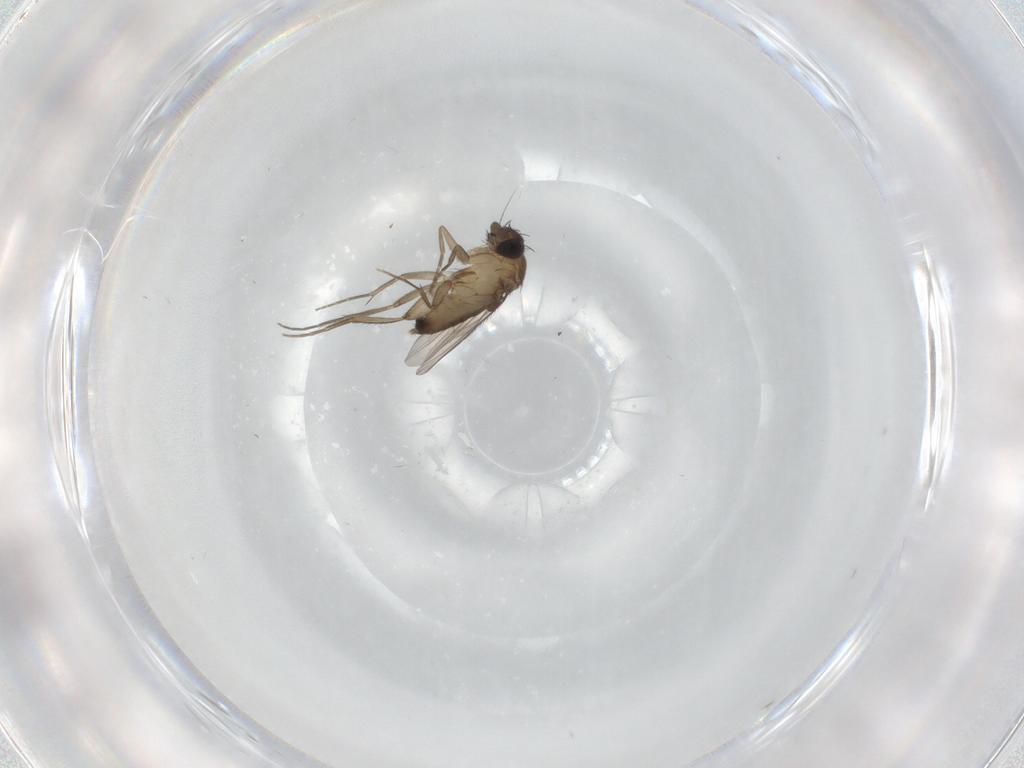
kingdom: Animalia
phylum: Arthropoda
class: Insecta
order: Diptera
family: Phoridae
